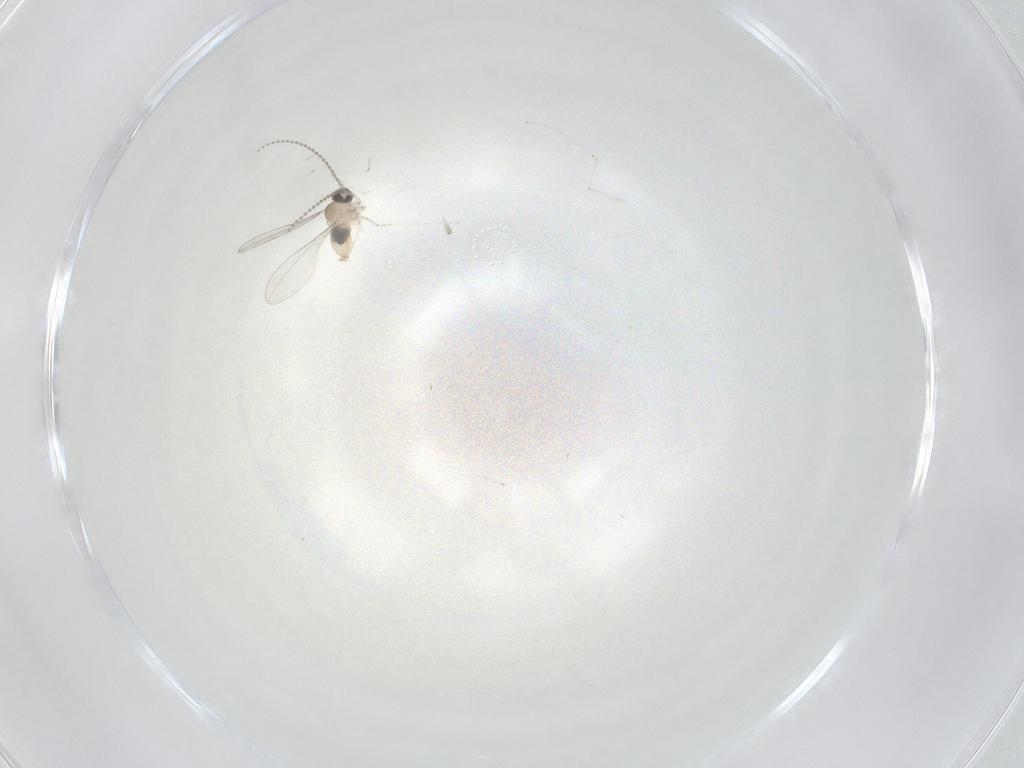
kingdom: Animalia
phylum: Arthropoda
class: Insecta
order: Diptera
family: Cecidomyiidae
